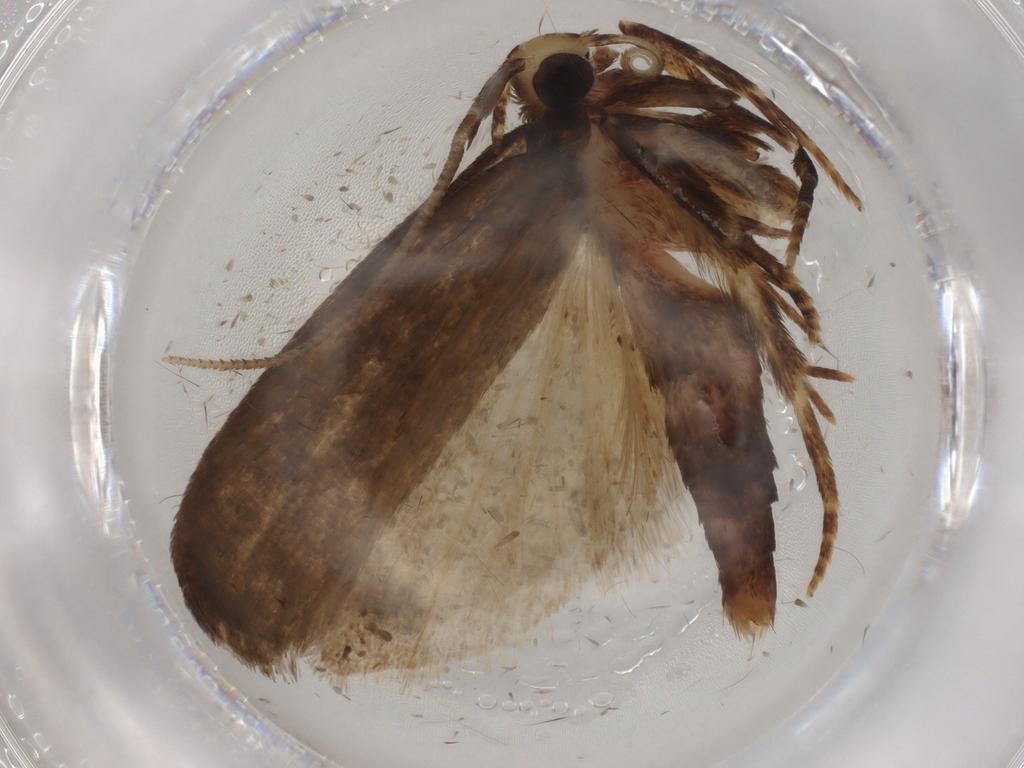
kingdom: Animalia
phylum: Arthropoda
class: Insecta
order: Lepidoptera
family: Autostichidae
